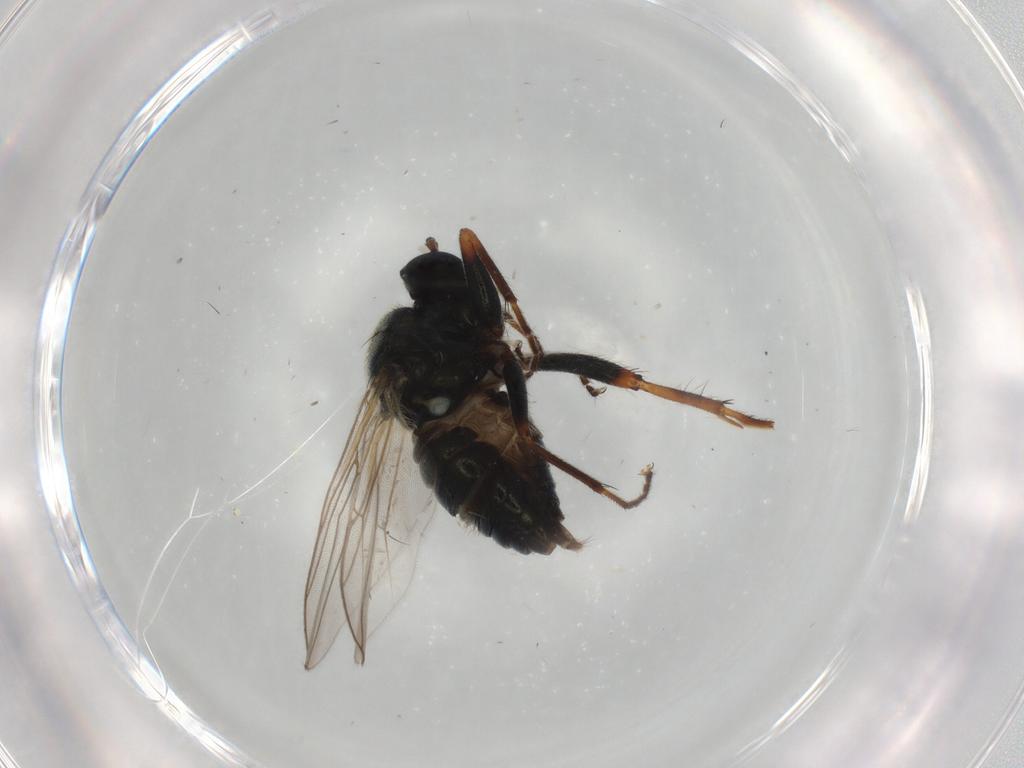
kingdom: Animalia
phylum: Arthropoda
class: Insecta
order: Diptera
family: Hybotidae
